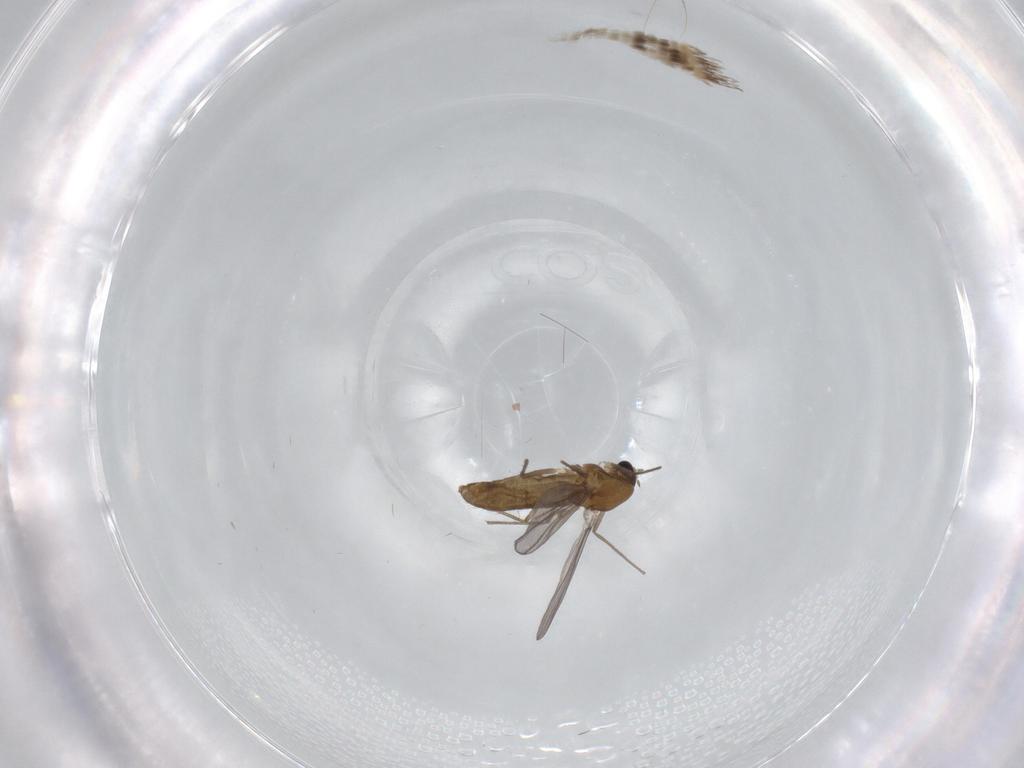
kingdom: Animalia
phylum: Arthropoda
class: Insecta
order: Diptera
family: Chironomidae
